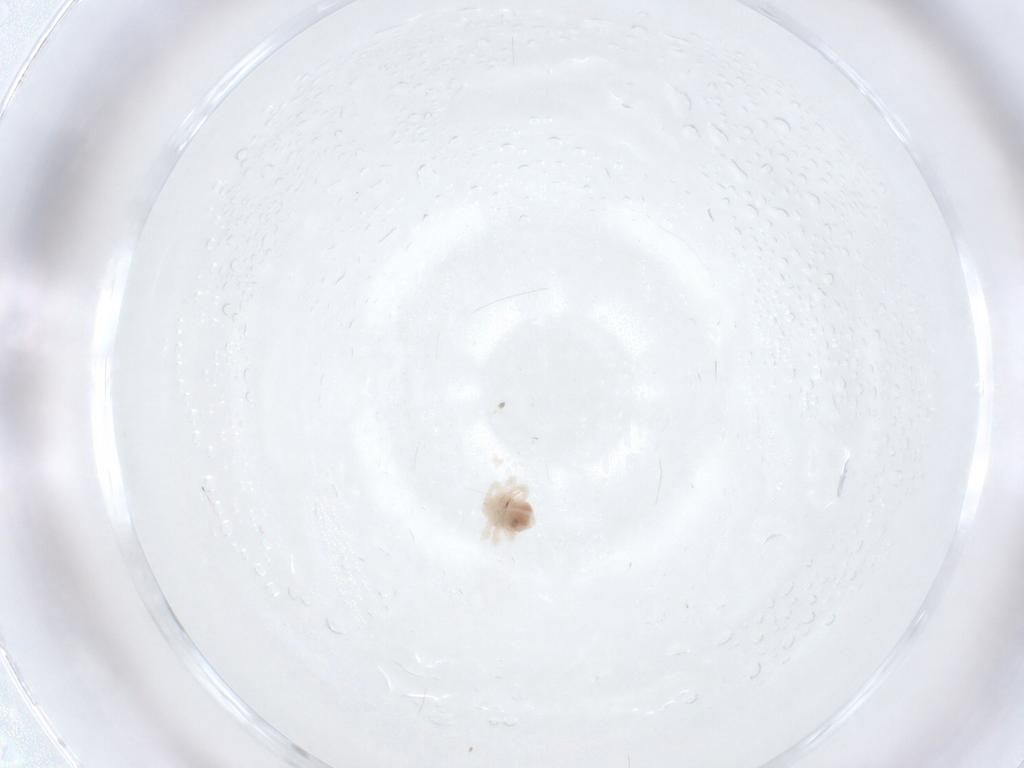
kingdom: Animalia
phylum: Arthropoda
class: Arachnida
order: Trombidiformes
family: Anystidae
